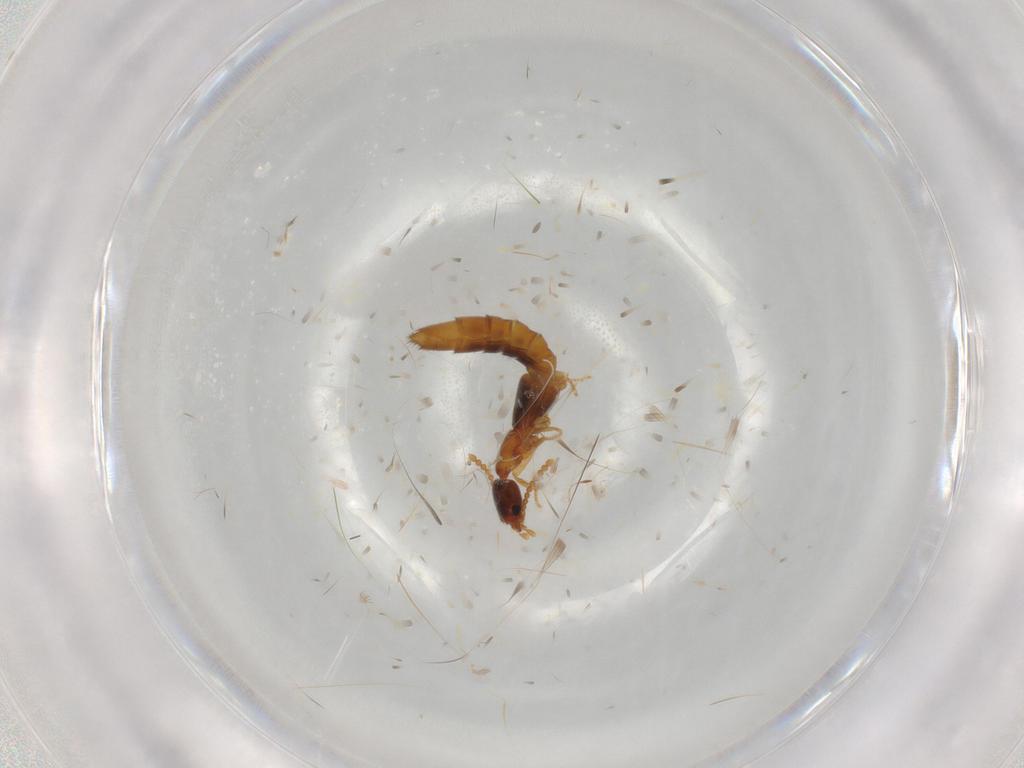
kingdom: Animalia
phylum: Arthropoda
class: Insecta
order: Coleoptera
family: Staphylinidae
